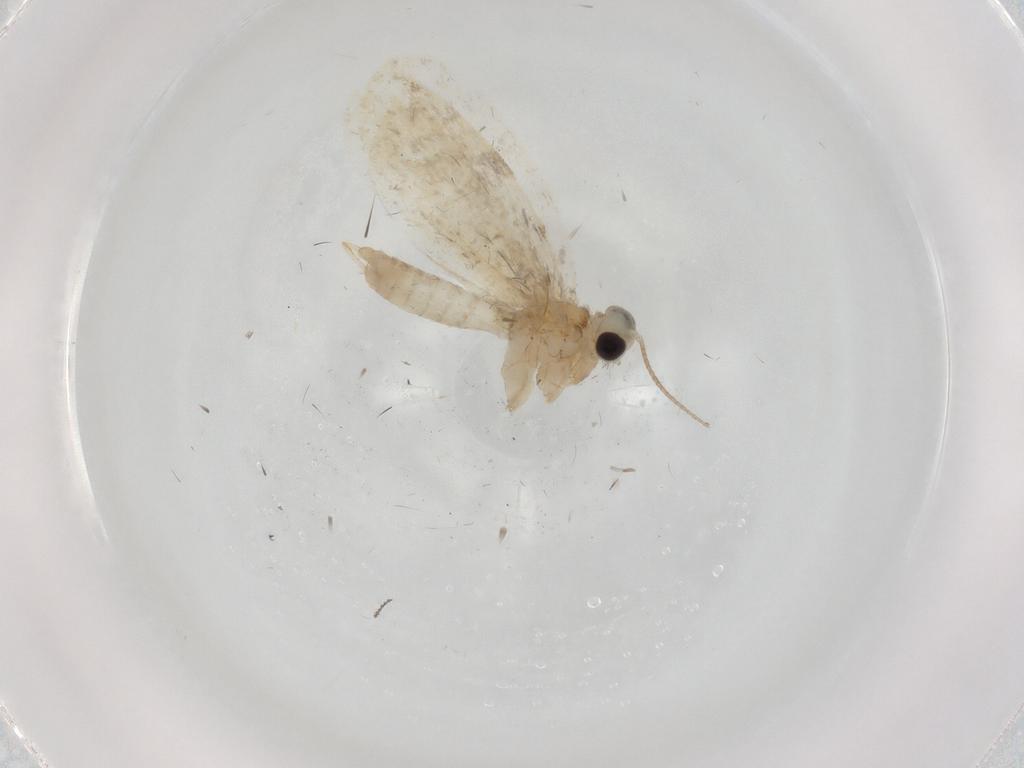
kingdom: Animalia
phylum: Arthropoda
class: Insecta
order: Lepidoptera
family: Psychidae
